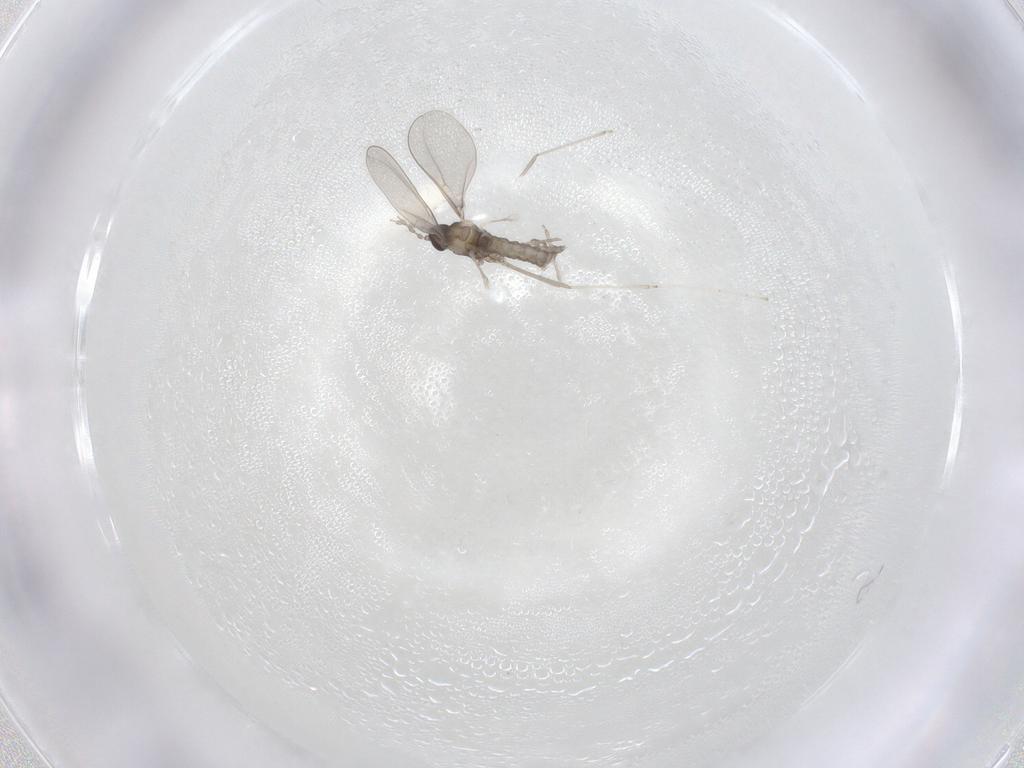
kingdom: Animalia
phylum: Arthropoda
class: Insecta
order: Diptera
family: Cecidomyiidae
